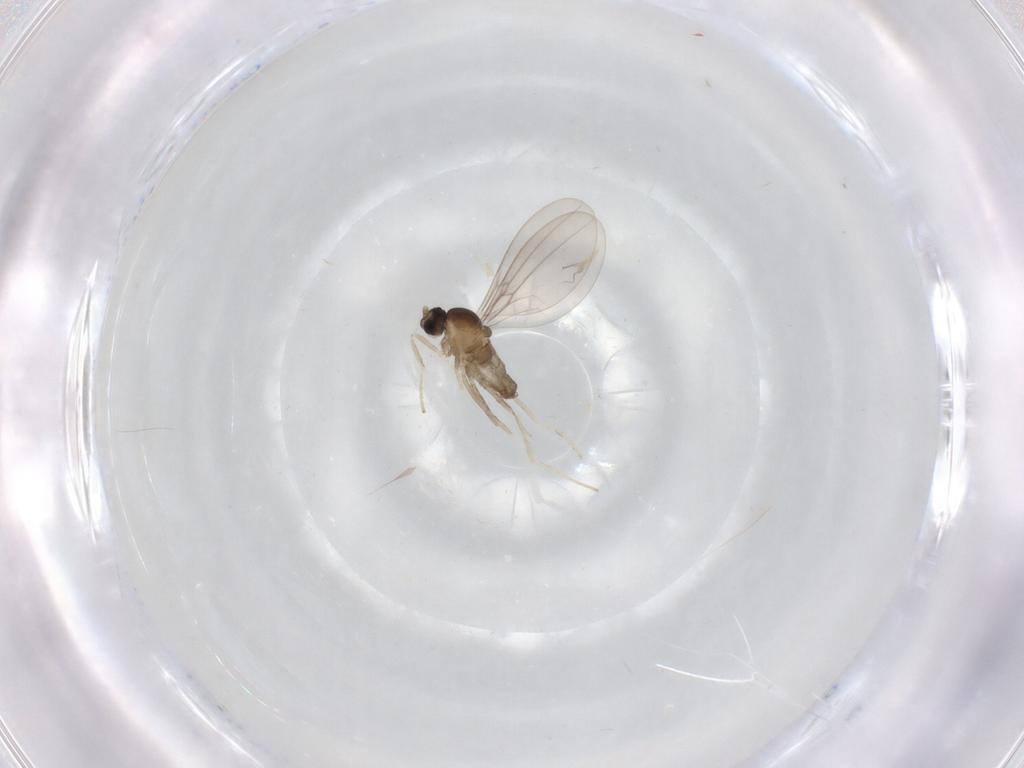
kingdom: Animalia
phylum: Arthropoda
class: Insecta
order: Diptera
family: Cecidomyiidae
